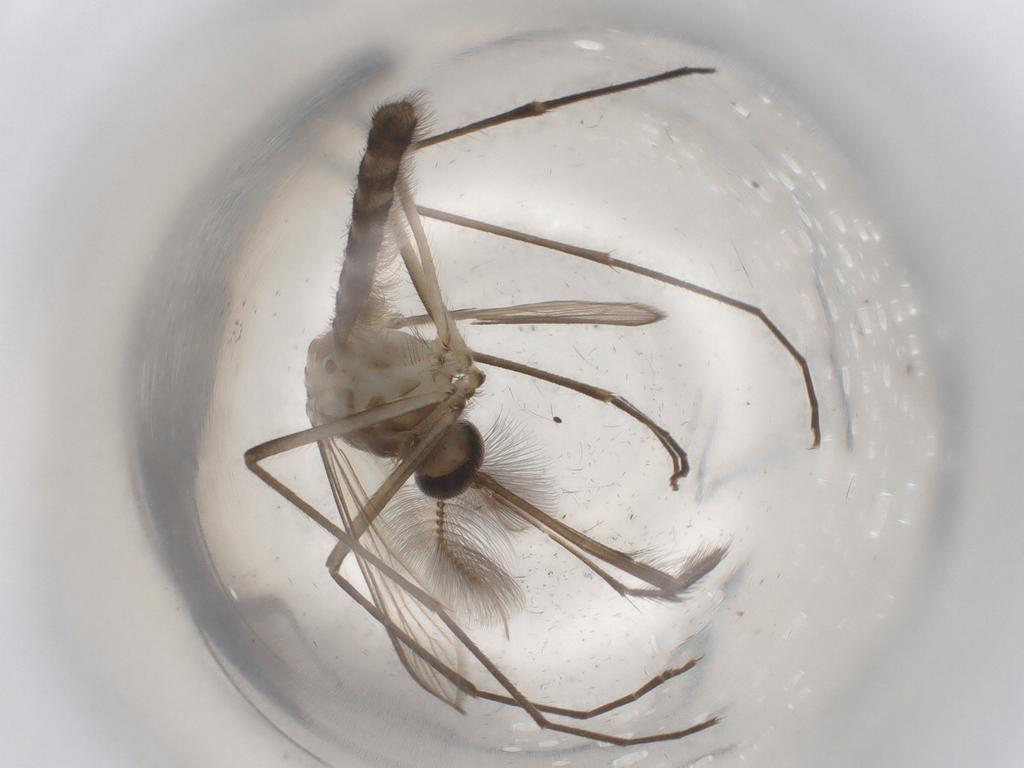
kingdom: Animalia
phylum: Arthropoda
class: Insecta
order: Diptera
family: Chloropidae
